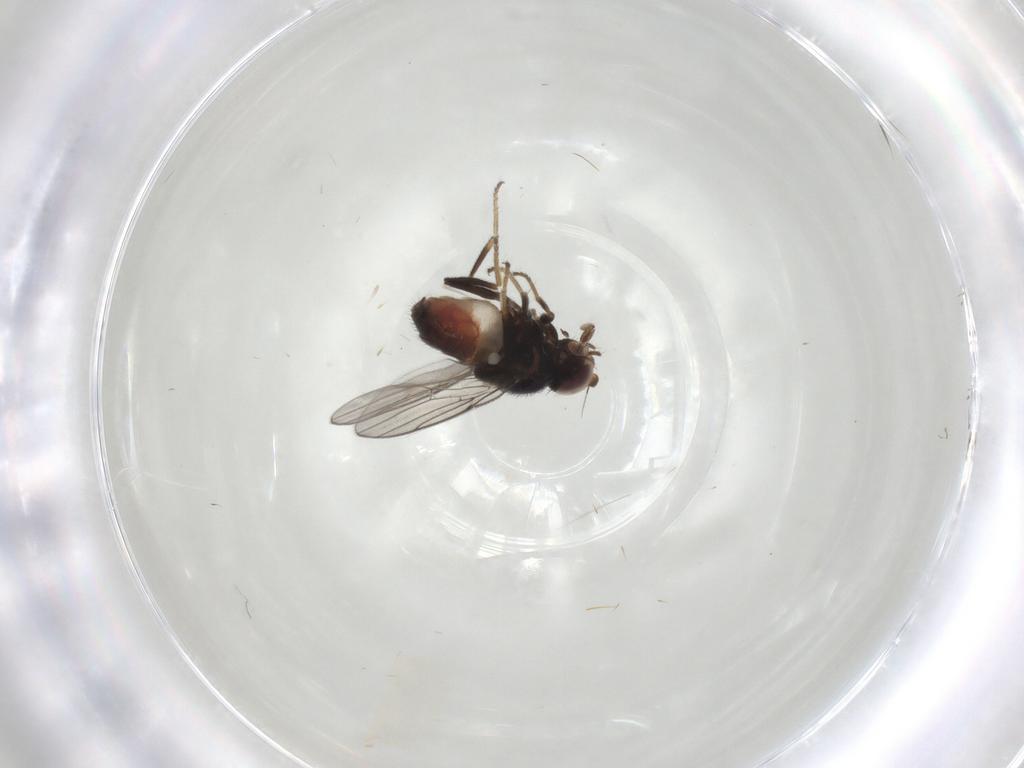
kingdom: Animalia
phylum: Arthropoda
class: Insecta
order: Diptera
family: Chloropidae
